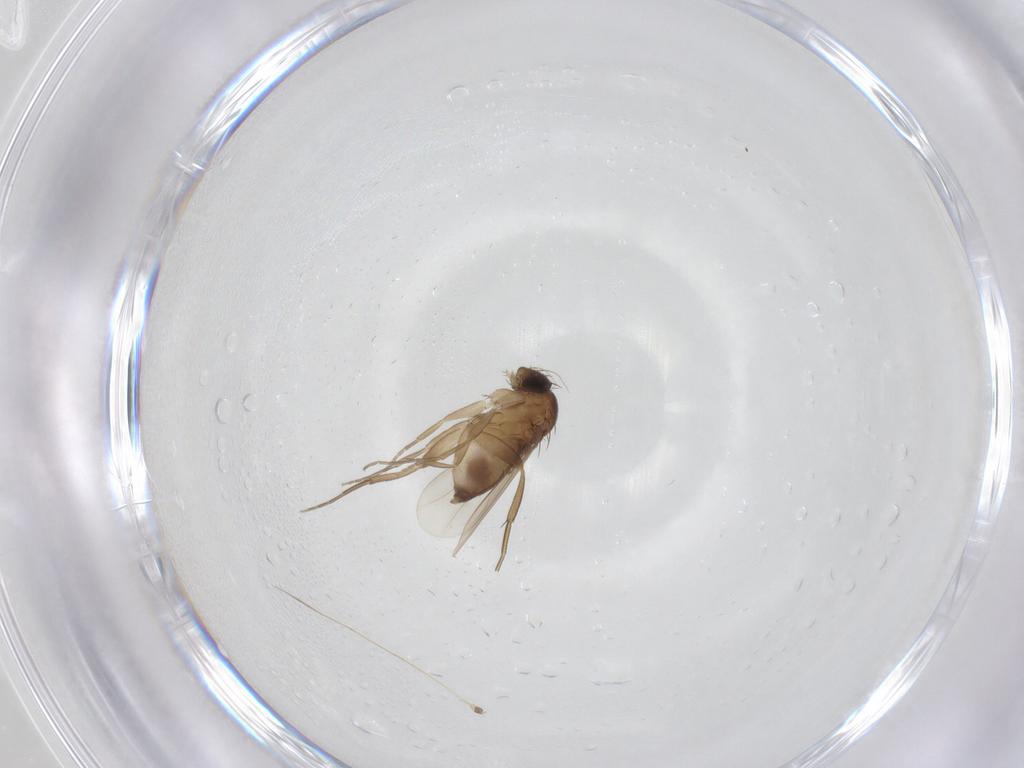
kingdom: Animalia
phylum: Arthropoda
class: Insecta
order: Diptera
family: Phoridae
